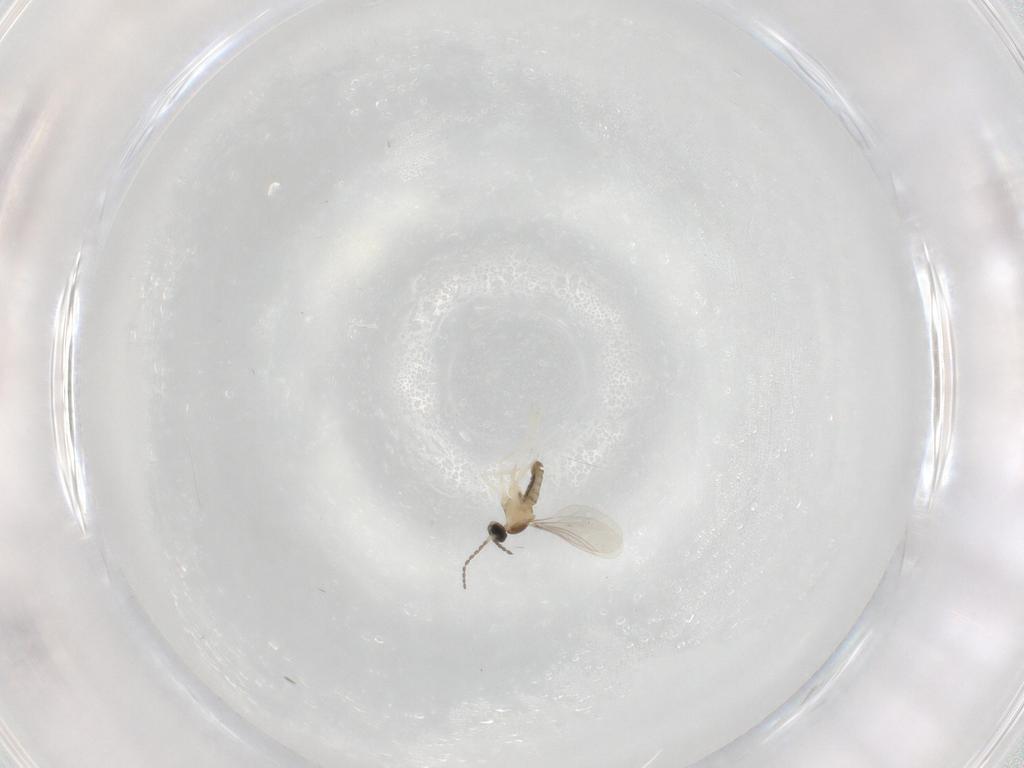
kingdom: Animalia
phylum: Arthropoda
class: Insecta
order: Diptera
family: Cecidomyiidae
